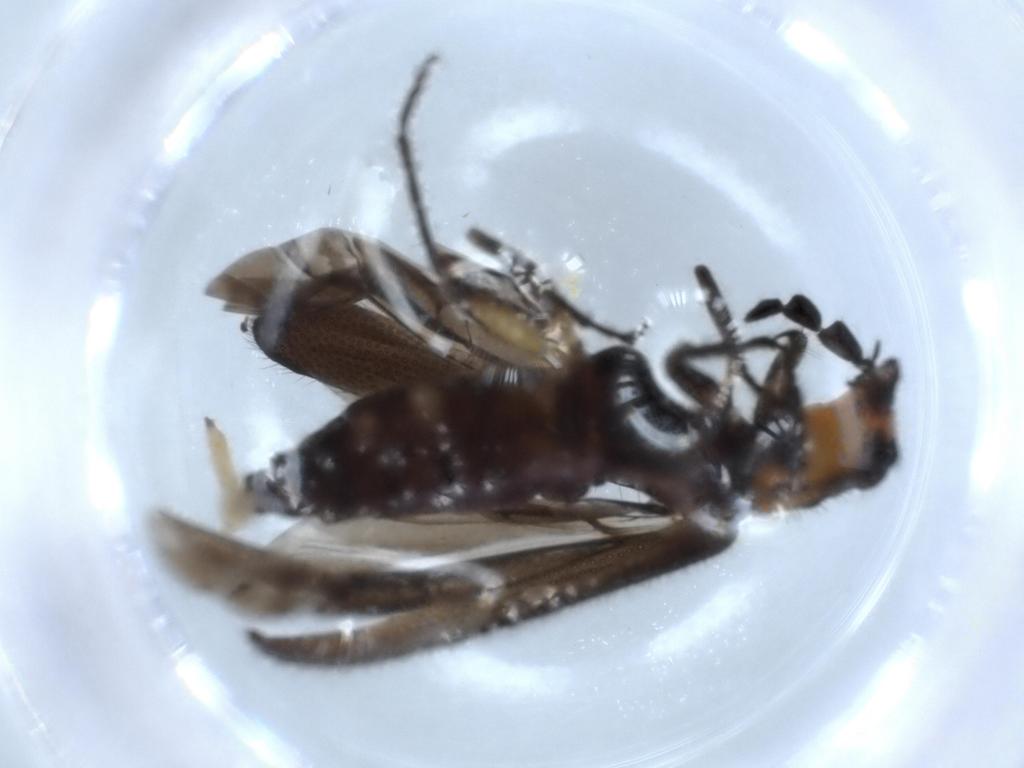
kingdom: Animalia
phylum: Arthropoda
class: Insecta
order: Coleoptera
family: Cleridae
